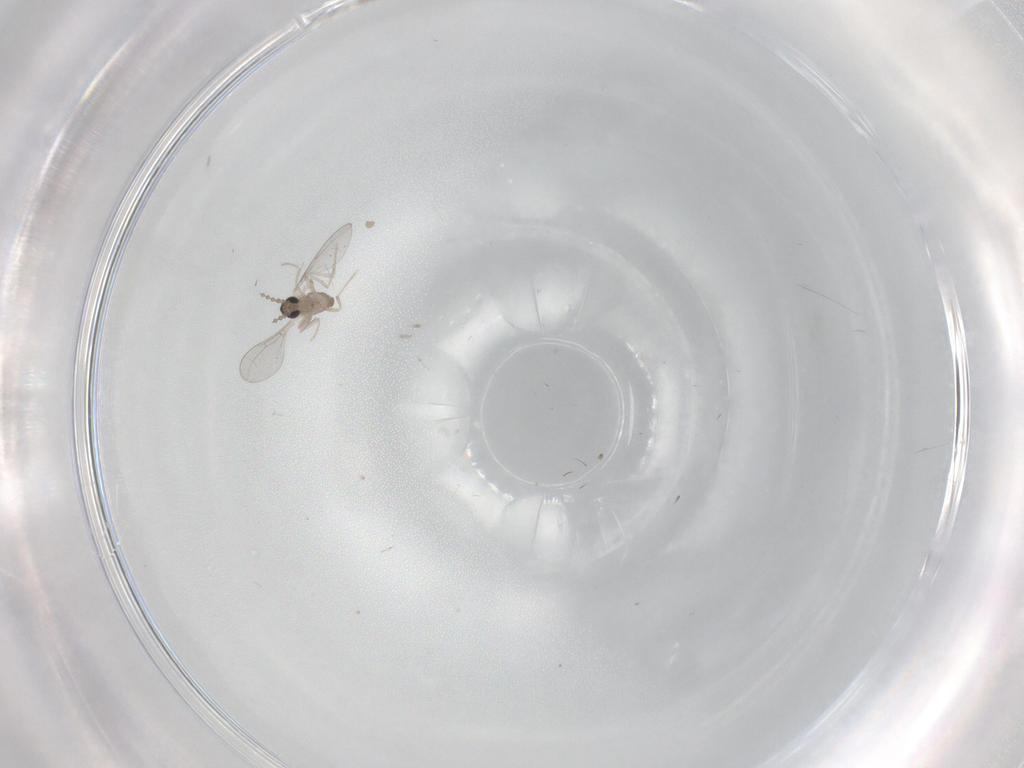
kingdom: Animalia
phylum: Arthropoda
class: Insecta
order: Diptera
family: Cecidomyiidae
